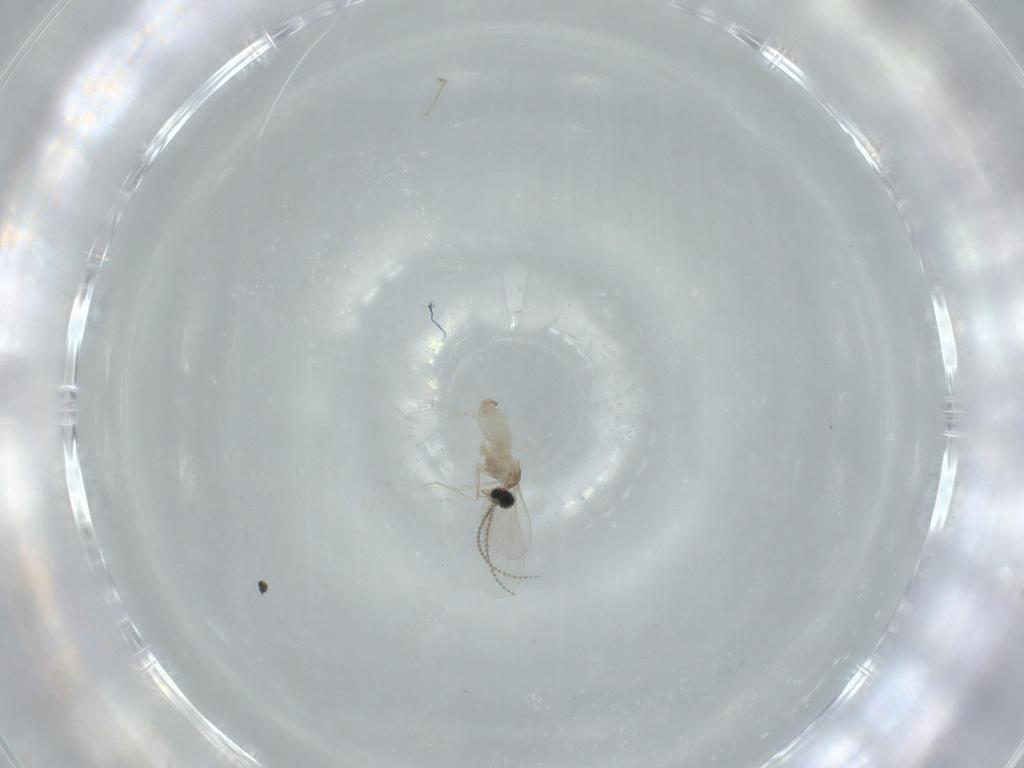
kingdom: Animalia
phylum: Arthropoda
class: Insecta
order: Diptera
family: Cecidomyiidae
